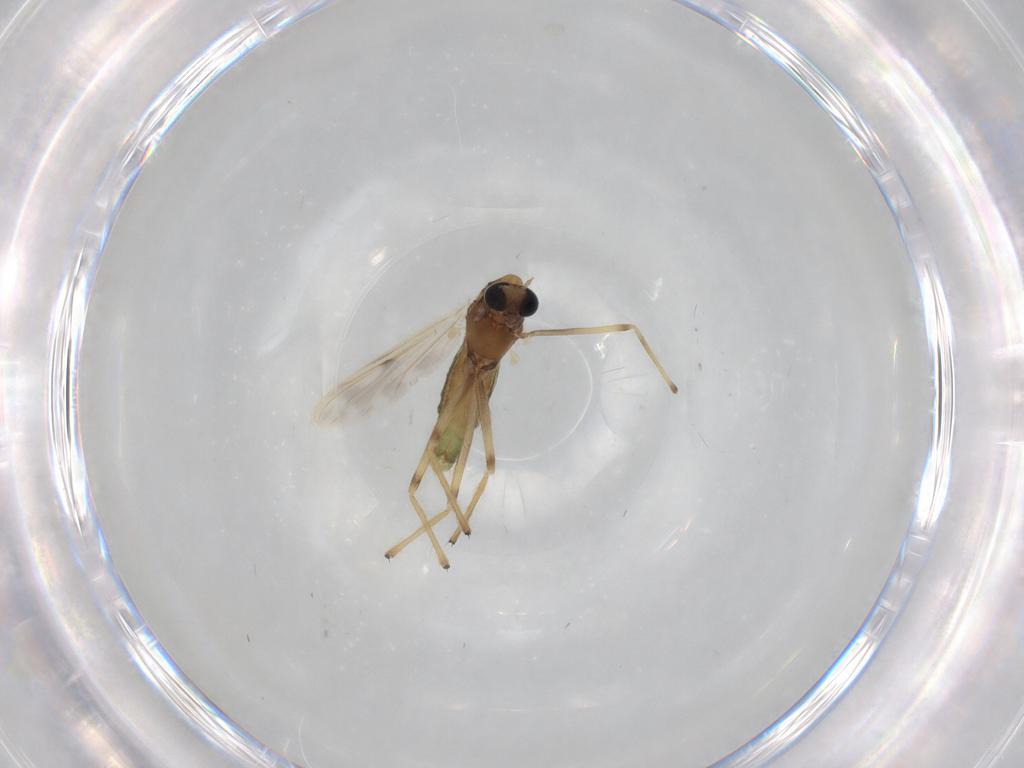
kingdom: Animalia
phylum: Arthropoda
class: Insecta
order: Diptera
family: Chironomidae
